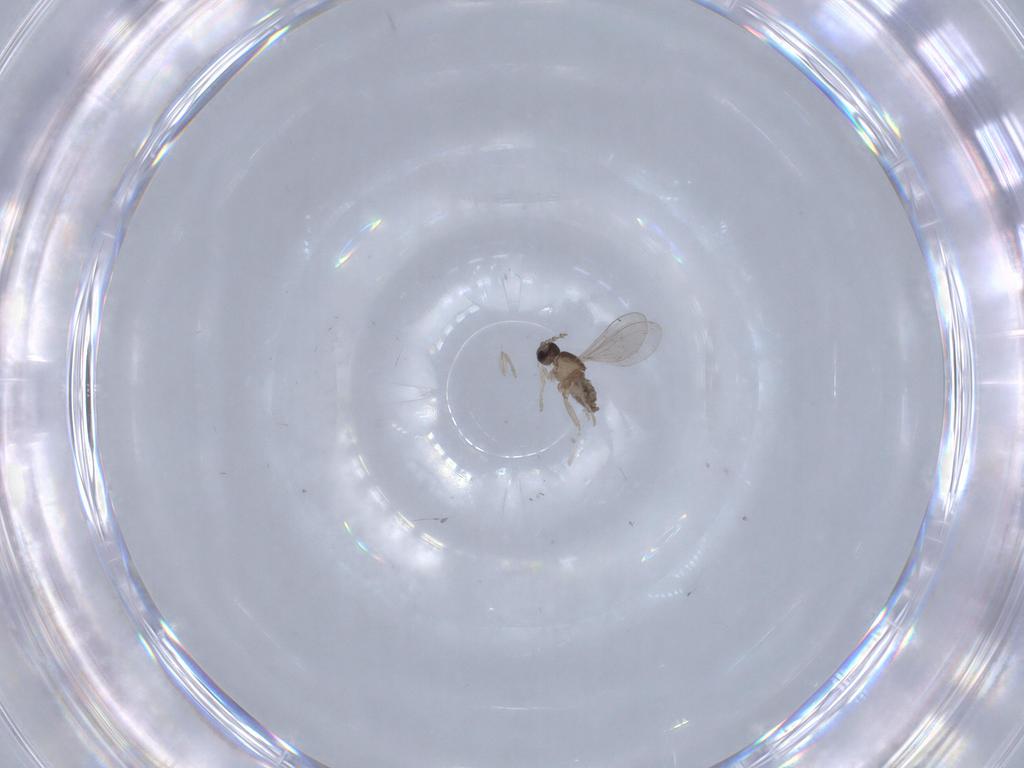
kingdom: Animalia
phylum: Arthropoda
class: Insecta
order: Diptera
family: Cecidomyiidae
